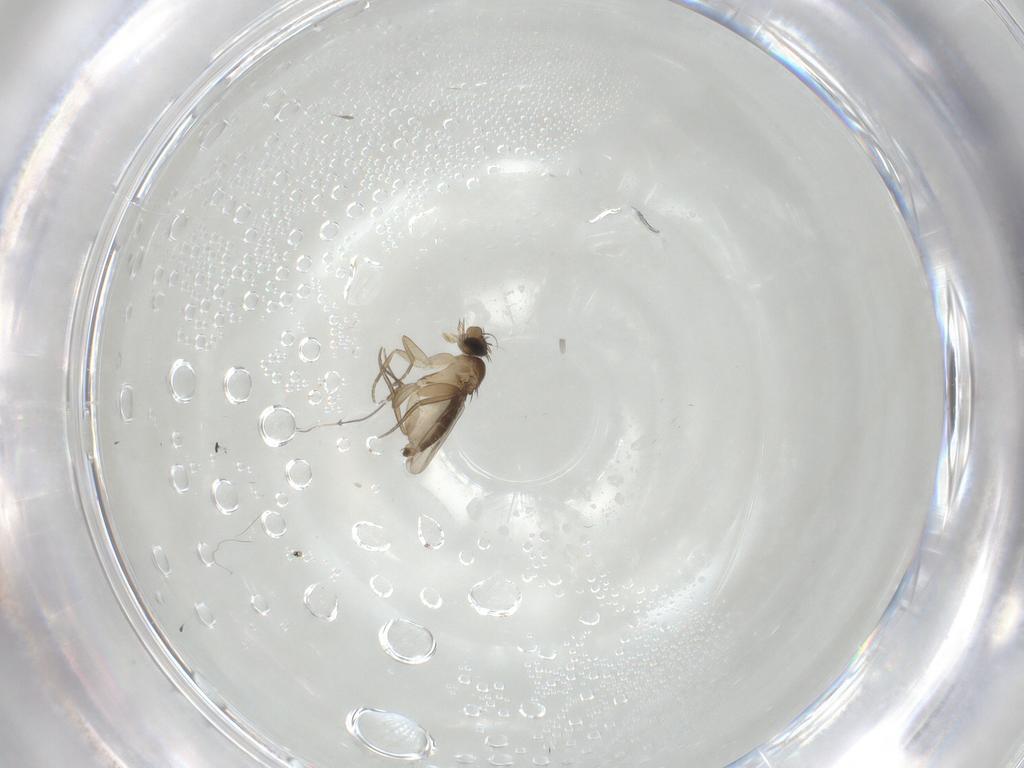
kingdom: Animalia
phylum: Arthropoda
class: Insecta
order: Diptera
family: Phoridae
